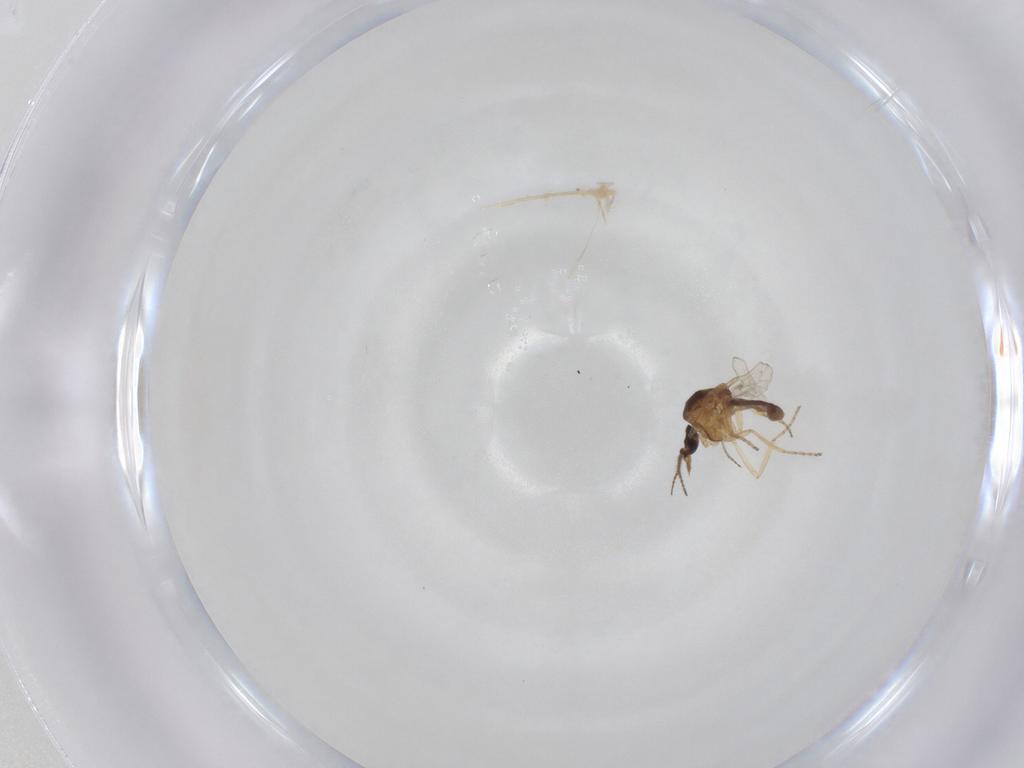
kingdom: Animalia
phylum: Arthropoda
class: Insecta
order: Diptera
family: Ceratopogonidae
